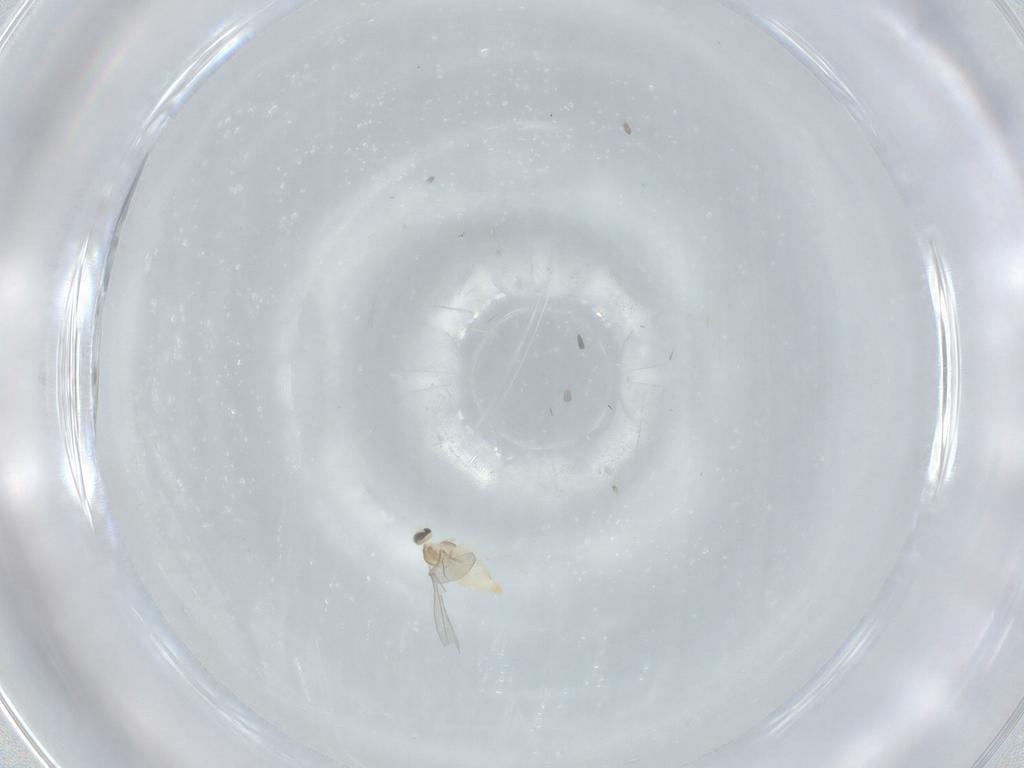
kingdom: Animalia
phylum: Arthropoda
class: Insecta
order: Diptera
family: Cecidomyiidae
